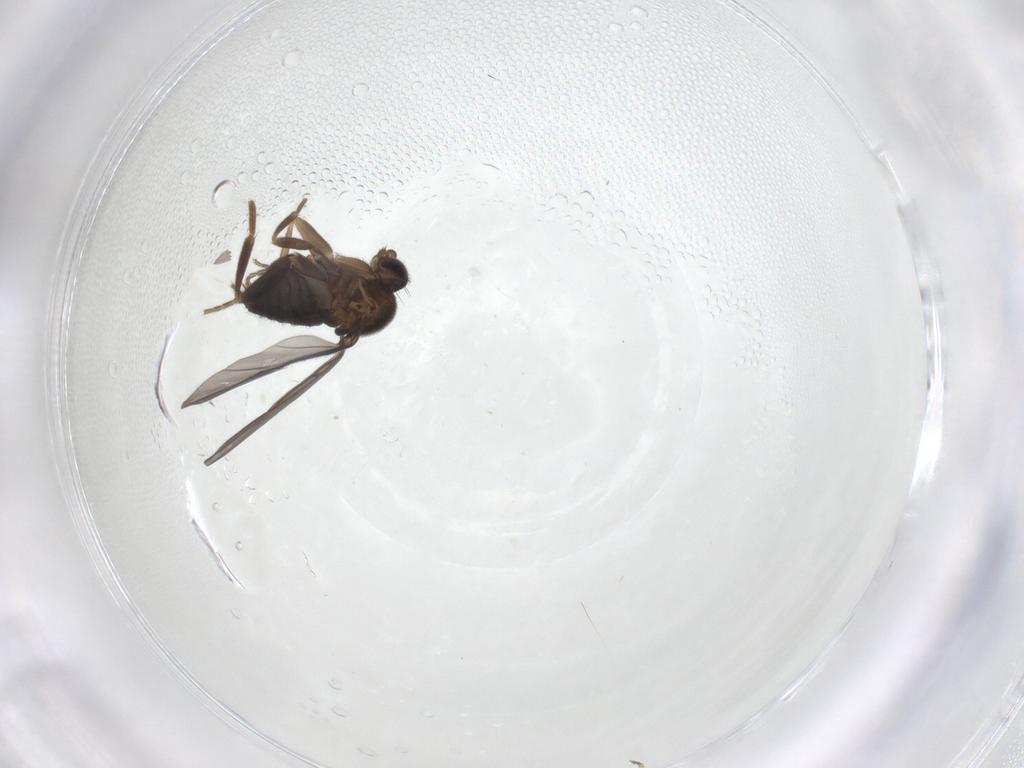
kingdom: Animalia
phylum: Arthropoda
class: Insecta
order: Diptera
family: Phoridae
